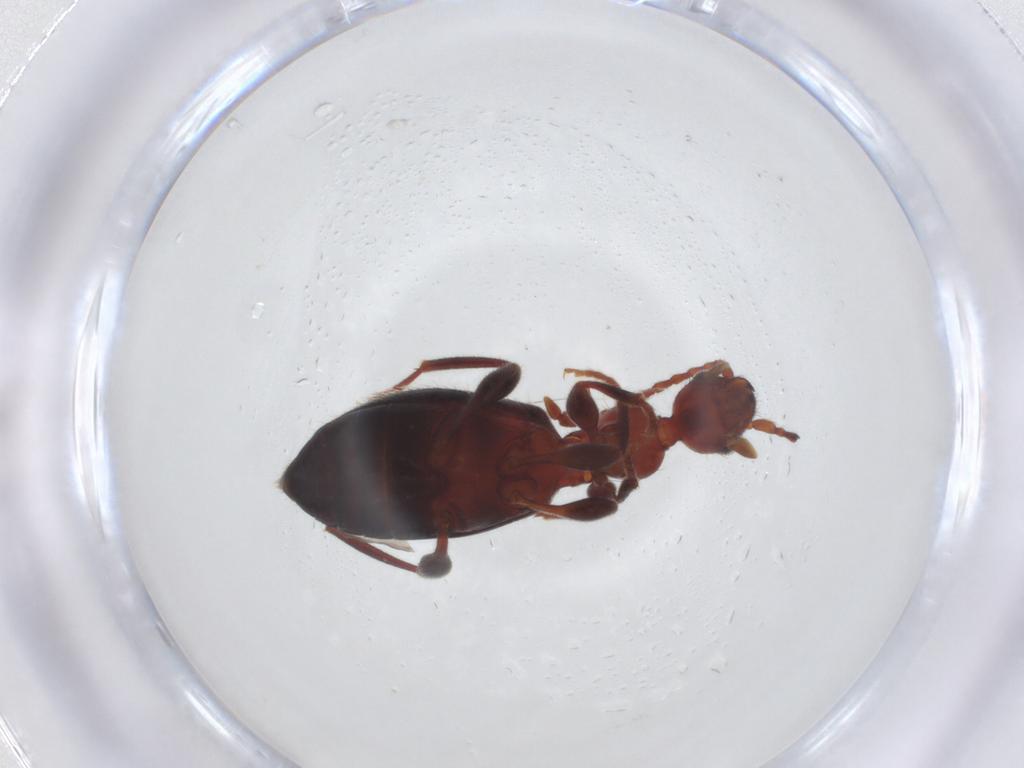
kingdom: Animalia
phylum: Arthropoda
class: Insecta
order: Coleoptera
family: Chrysomelidae
